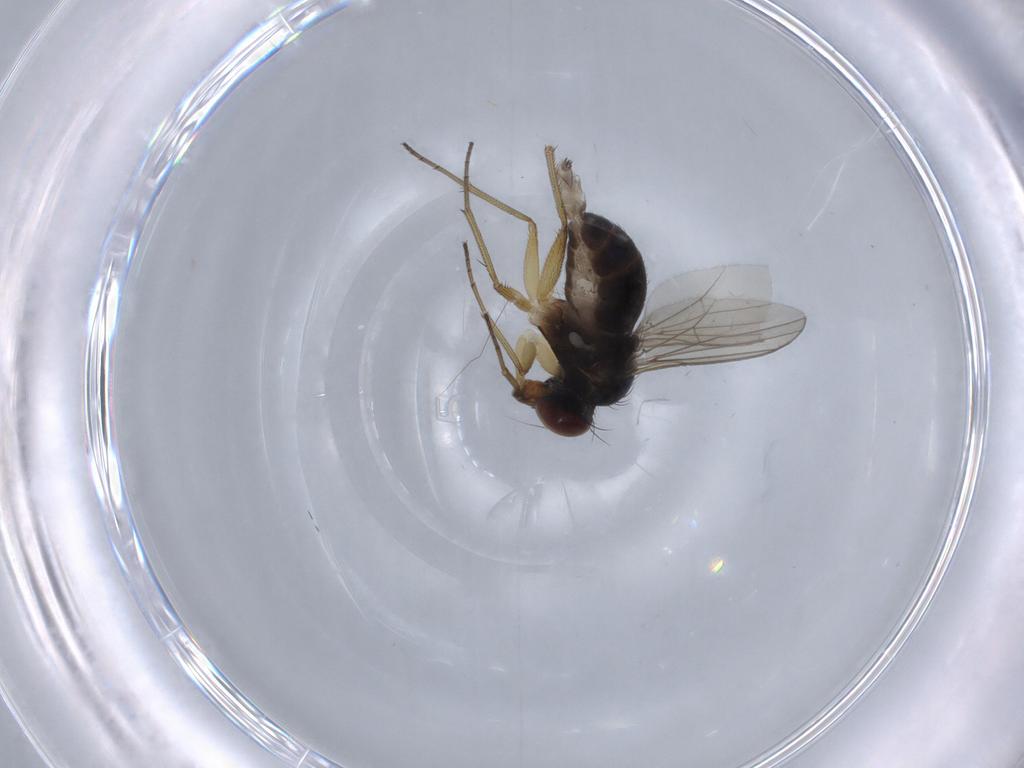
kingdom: Animalia
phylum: Arthropoda
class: Insecta
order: Diptera
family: Dolichopodidae
